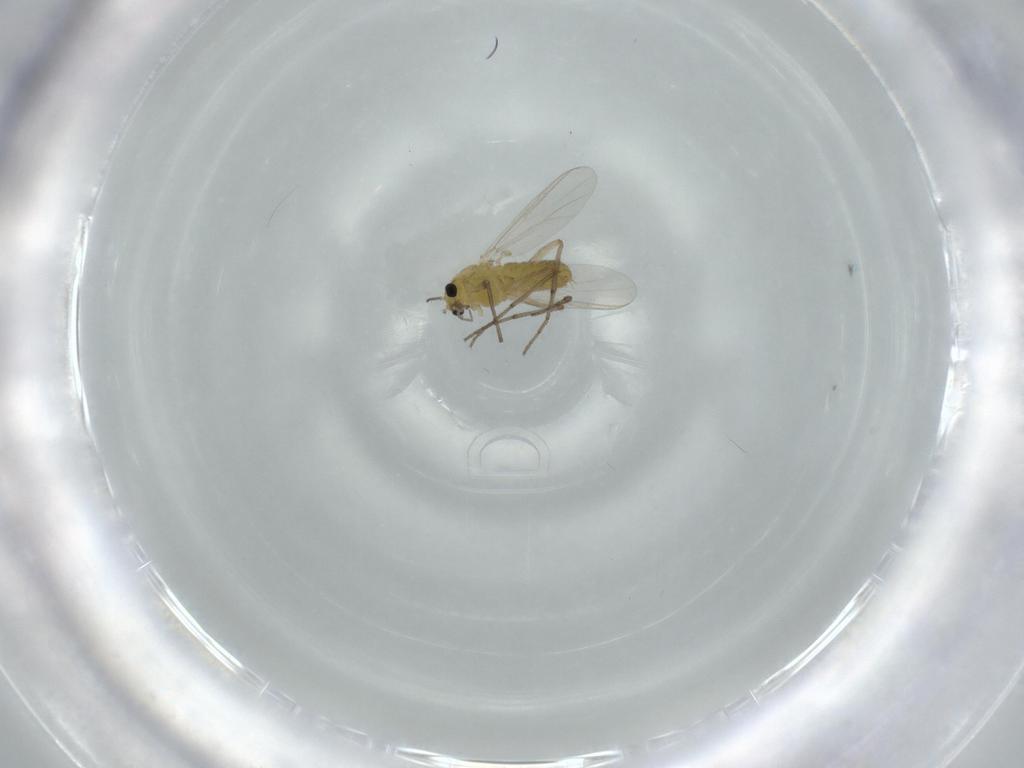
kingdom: Animalia
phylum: Arthropoda
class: Insecta
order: Diptera
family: Chironomidae
